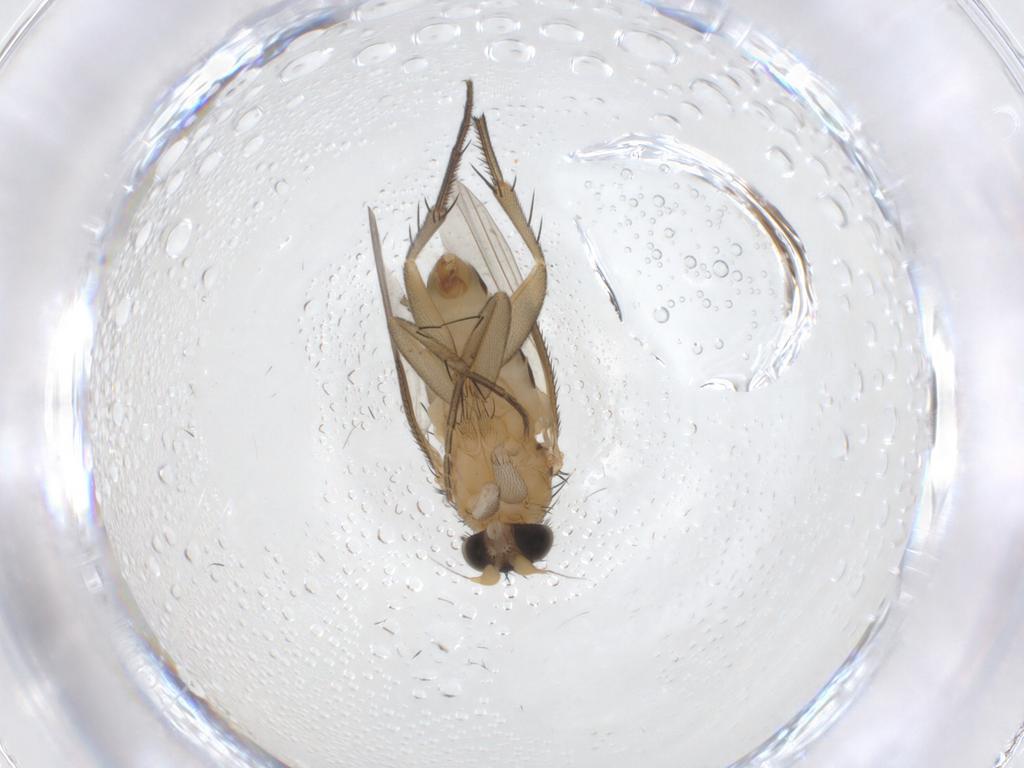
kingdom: Animalia
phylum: Arthropoda
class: Insecta
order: Diptera
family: Phoridae
